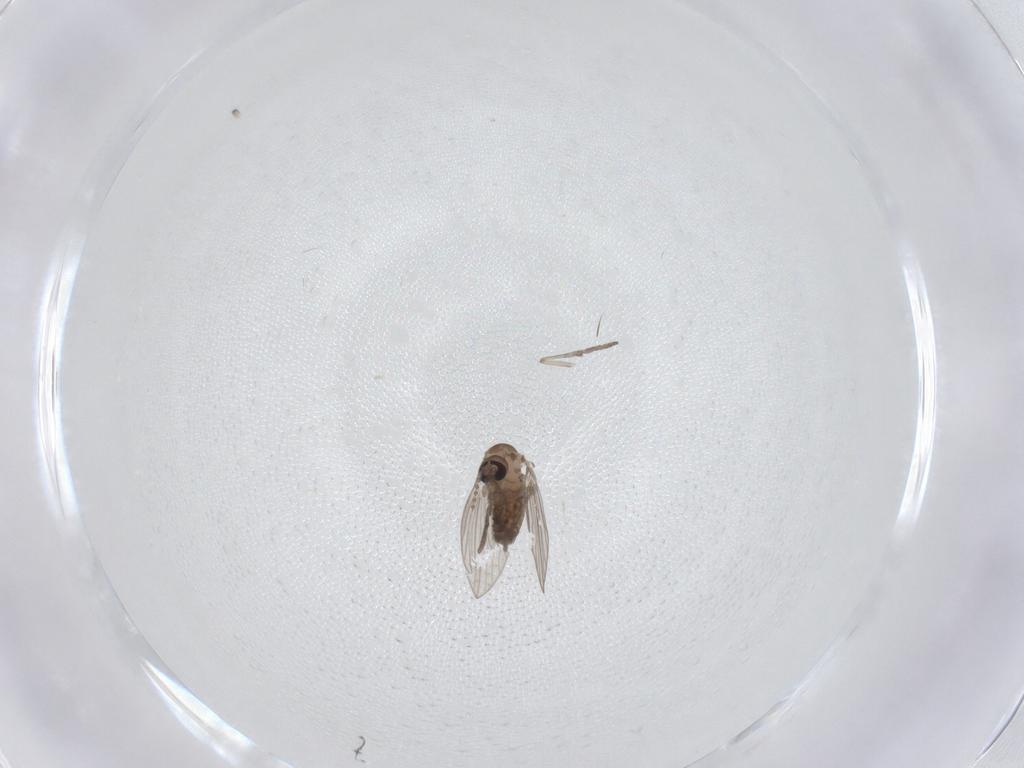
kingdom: Animalia
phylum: Arthropoda
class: Insecta
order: Diptera
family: Psychodidae
